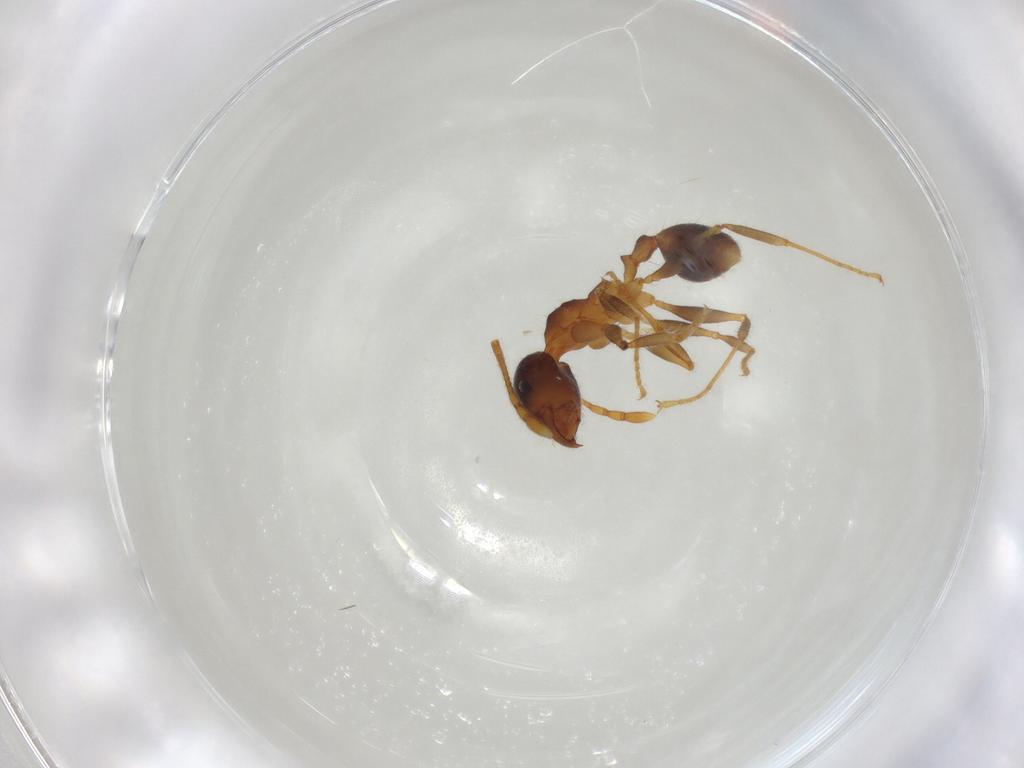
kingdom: Animalia
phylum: Arthropoda
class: Insecta
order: Hymenoptera
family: Formicidae
